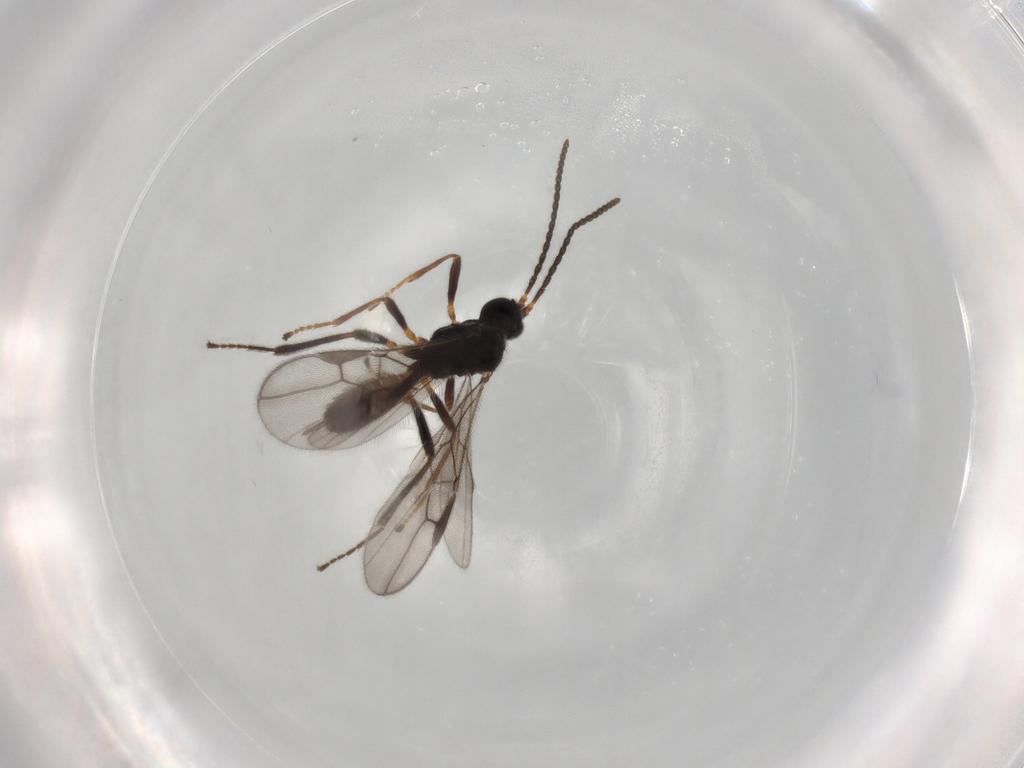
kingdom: Animalia
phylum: Arthropoda
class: Insecta
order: Hymenoptera
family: Braconidae
